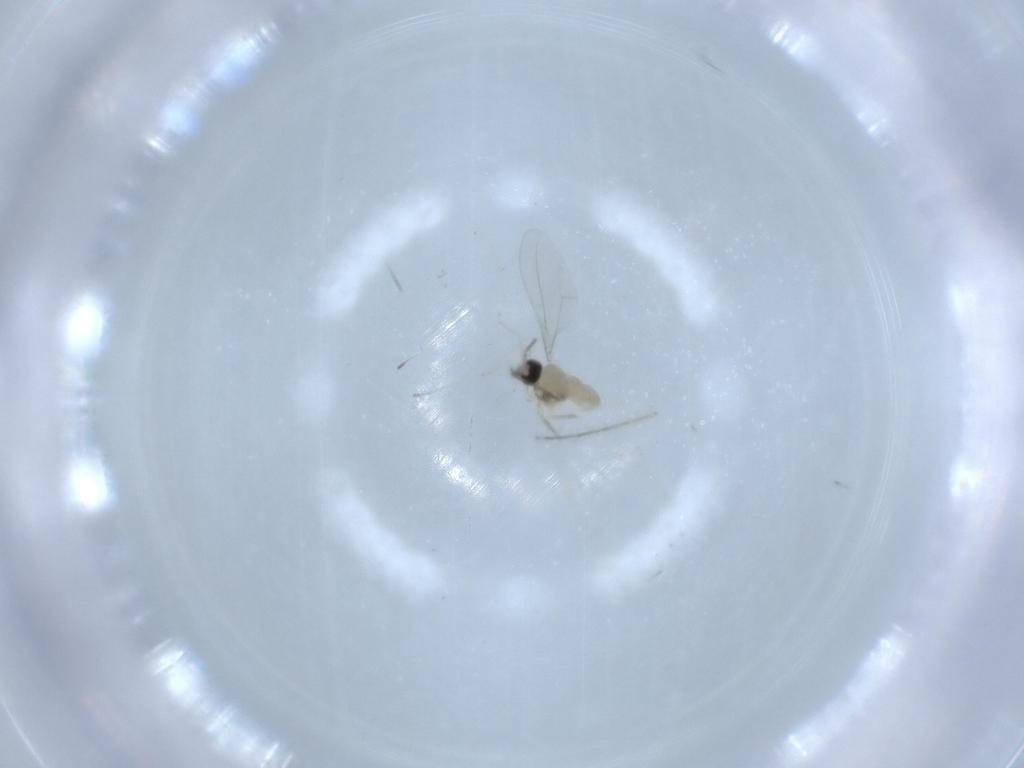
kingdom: Animalia
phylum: Arthropoda
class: Insecta
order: Diptera
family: Cecidomyiidae
